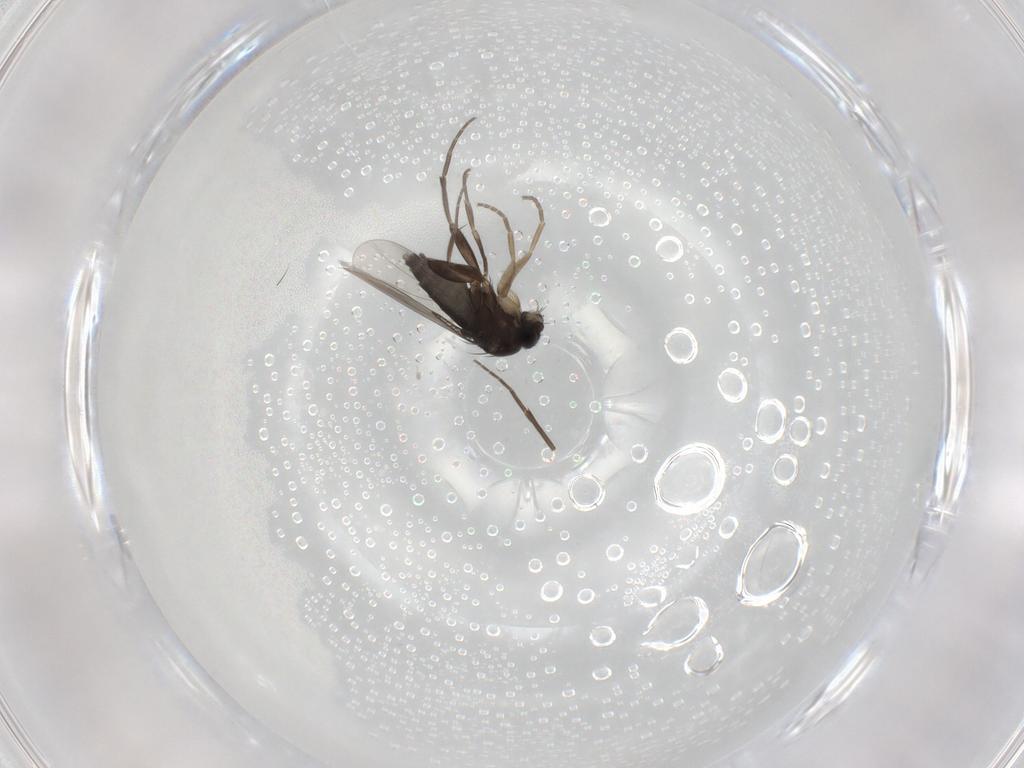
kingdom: Animalia
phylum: Arthropoda
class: Insecta
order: Diptera
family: Phoridae
